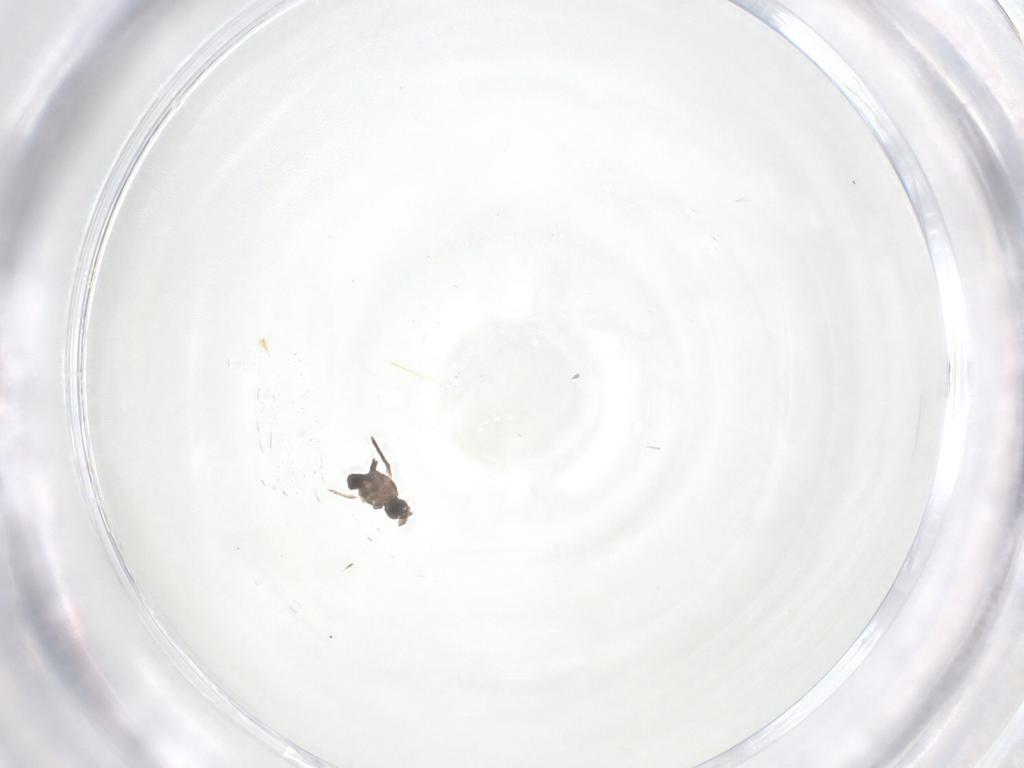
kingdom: Animalia
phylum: Arthropoda
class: Insecta
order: Diptera
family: Cecidomyiidae
